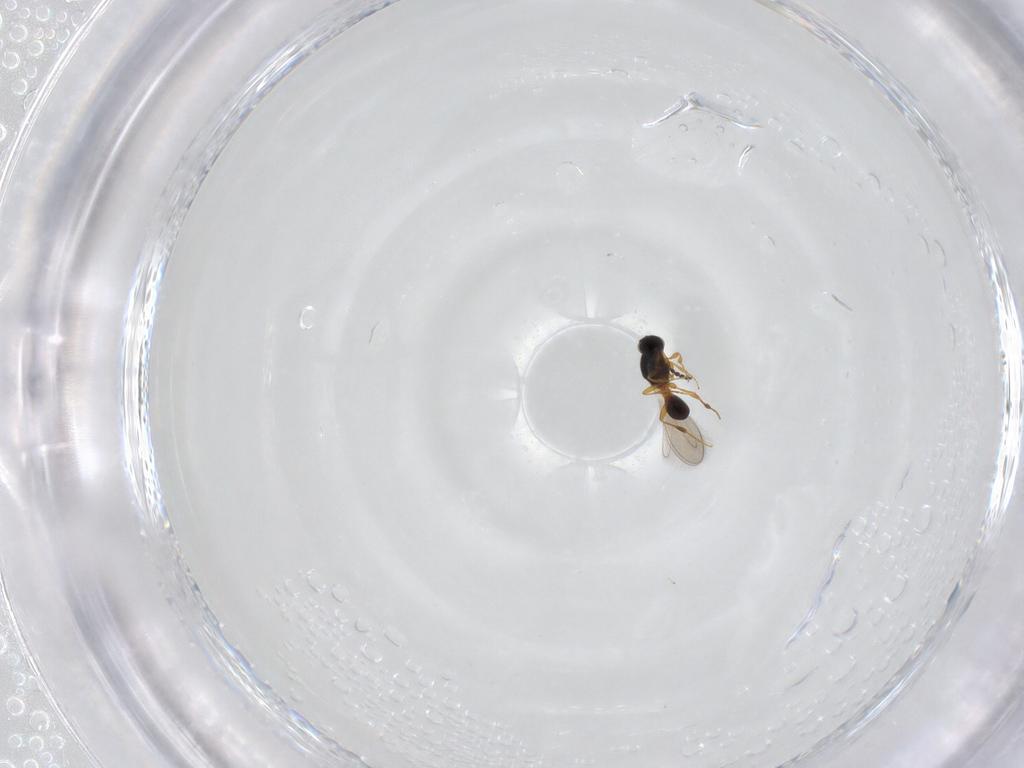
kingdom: Animalia
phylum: Arthropoda
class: Insecta
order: Hymenoptera
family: Platygastridae
